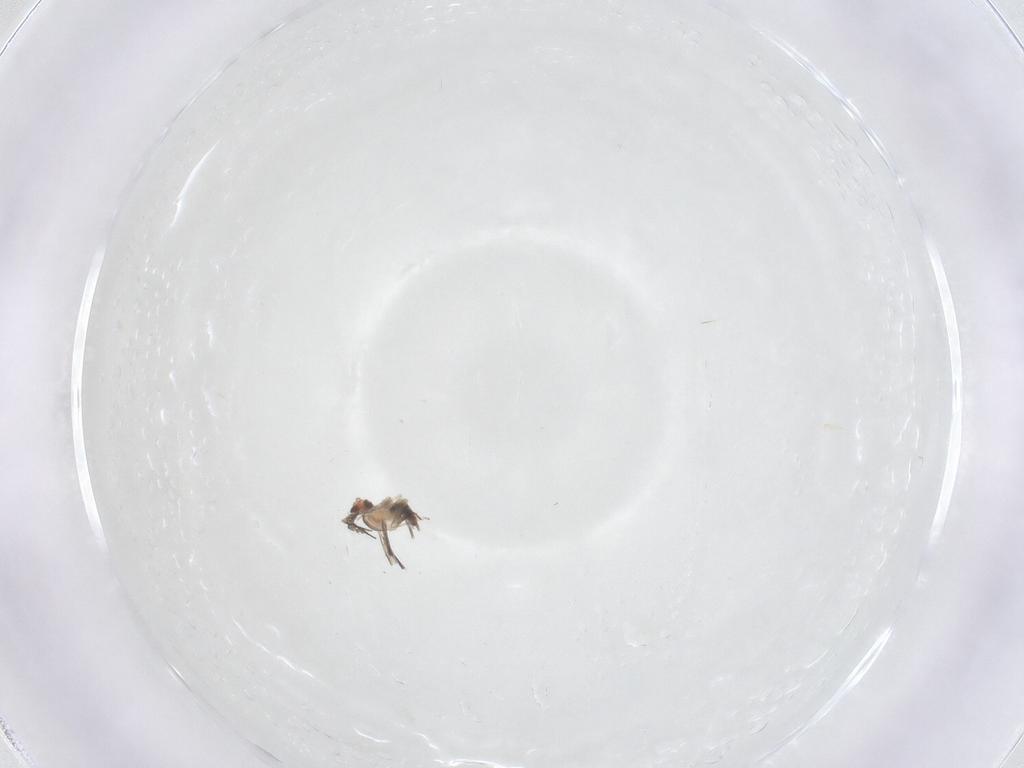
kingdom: Animalia
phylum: Arthropoda
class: Insecta
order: Diptera
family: Cecidomyiidae
